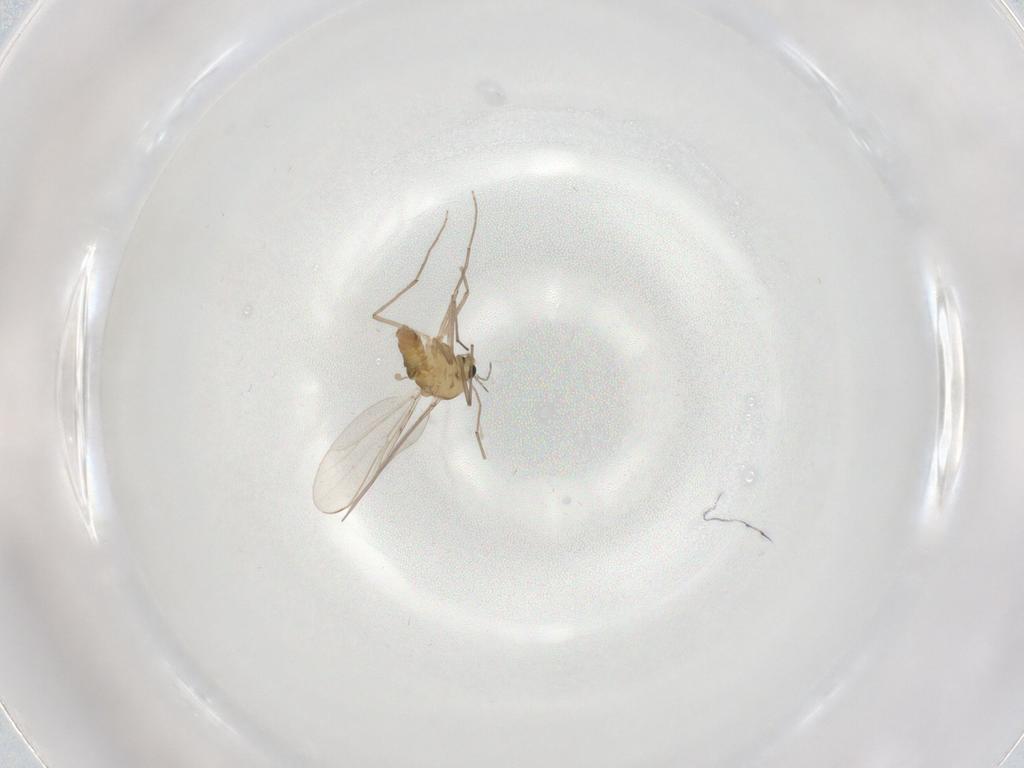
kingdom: Animalia
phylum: Arthropoda
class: Insecta
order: Diptera
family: Chironomidae
